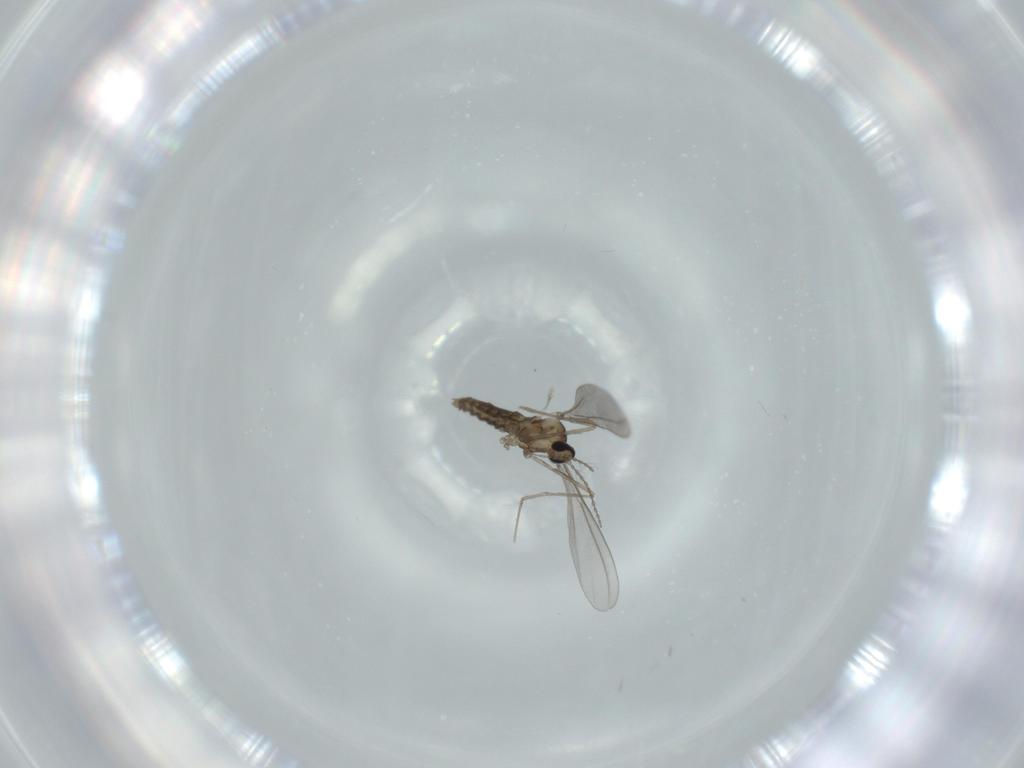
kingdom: Animalia
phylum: Arthropoda
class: Insecta
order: Diptera
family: Cecidomyiidae
